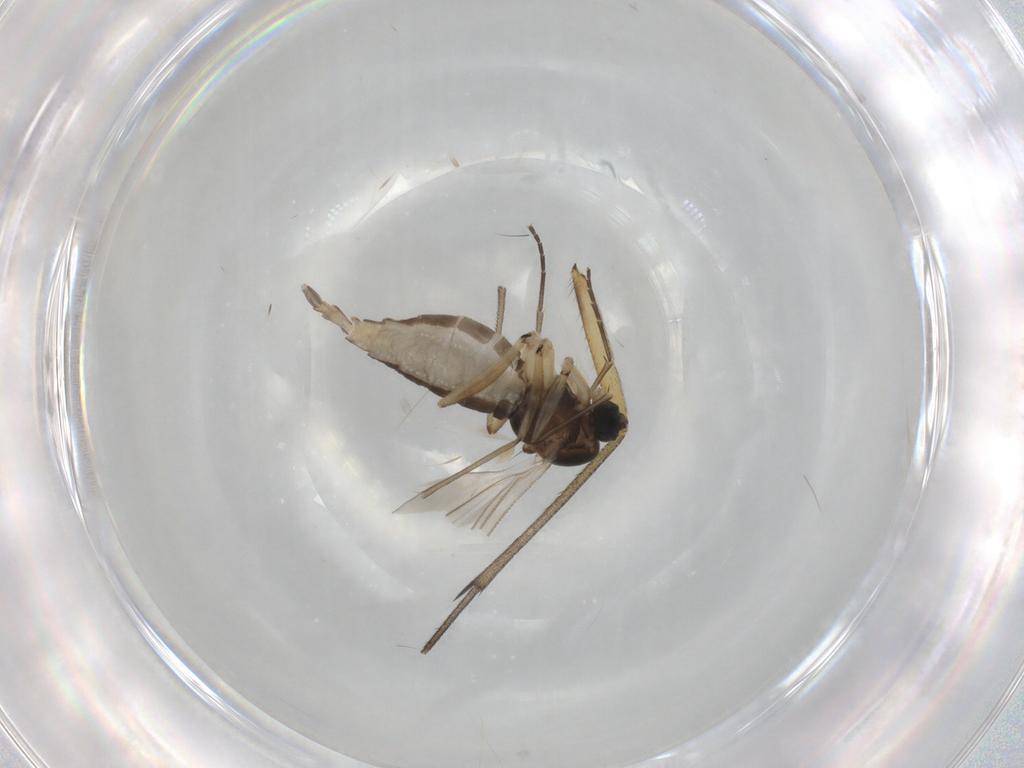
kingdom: Animalia
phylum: Arthropoda
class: Insecta
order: Diptera
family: Sciaridae
